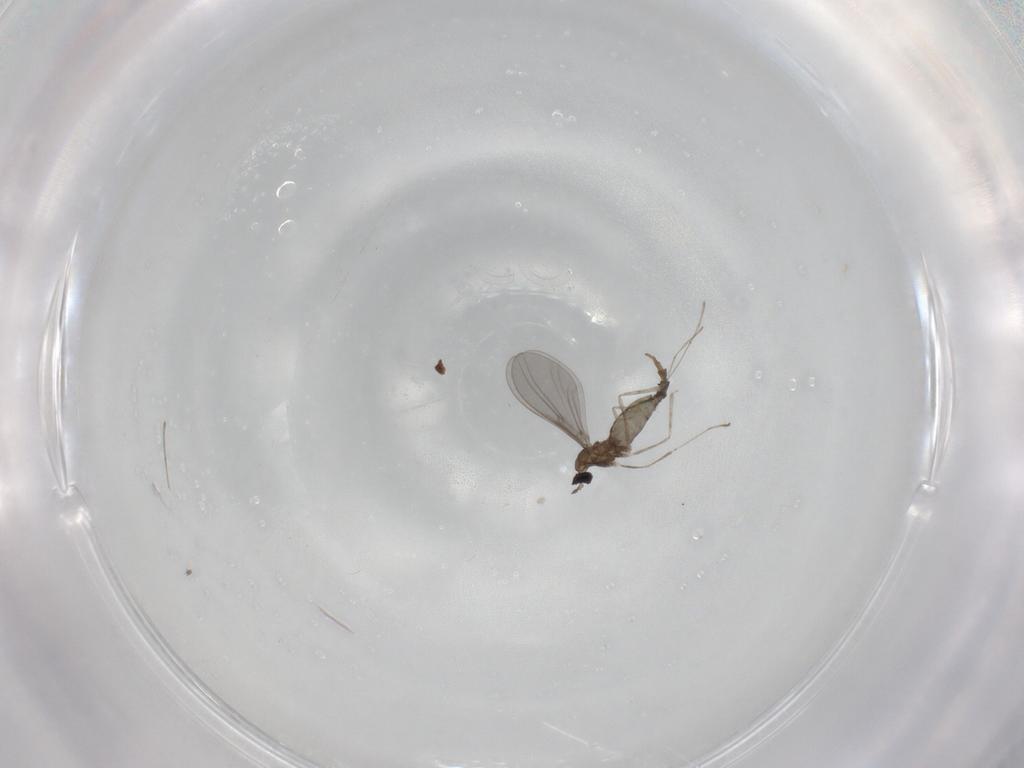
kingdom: Animalia
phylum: Arthropoda
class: Insecta
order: Diptera
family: Cecidomyiidae
